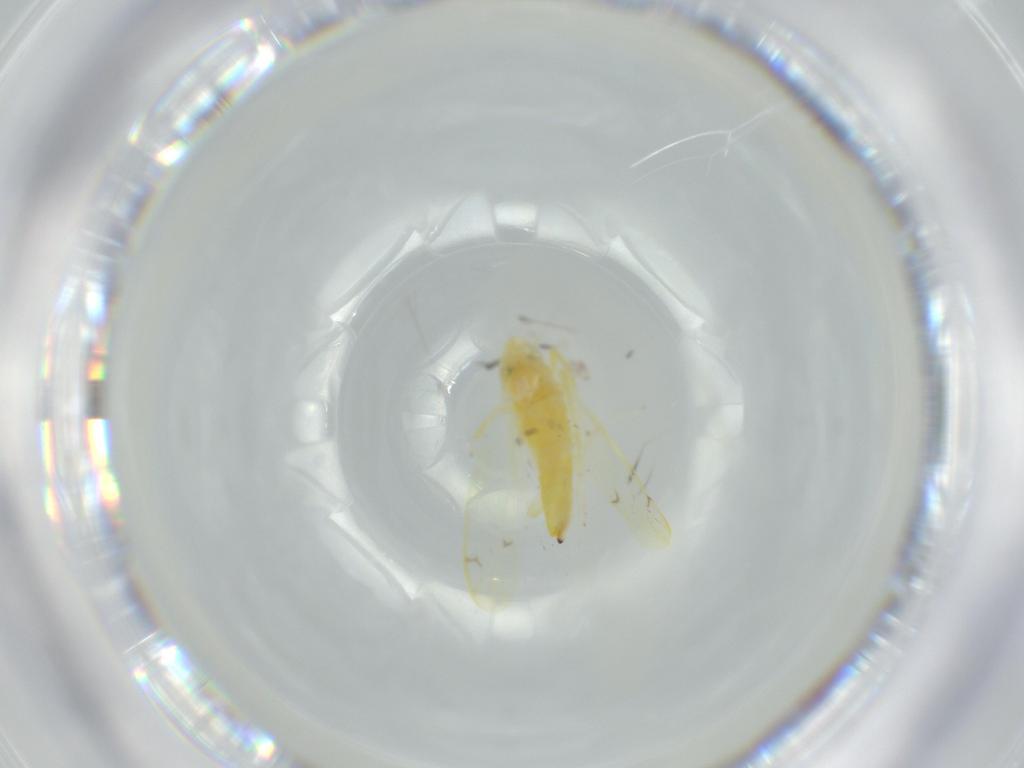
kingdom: Animalia
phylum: Arthropoda
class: Insecta
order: Hemiptera
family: Cicadellidae
